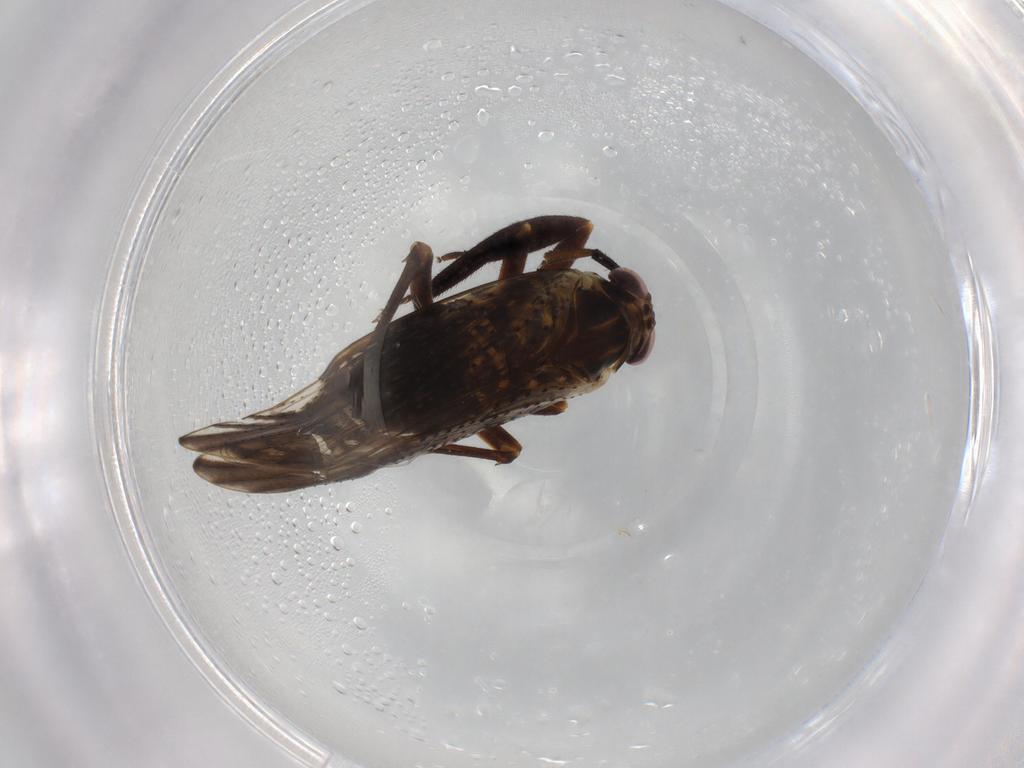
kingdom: Animalia
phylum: Arthropoda
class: Insecta
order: Hemiptera
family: Delphacidae
